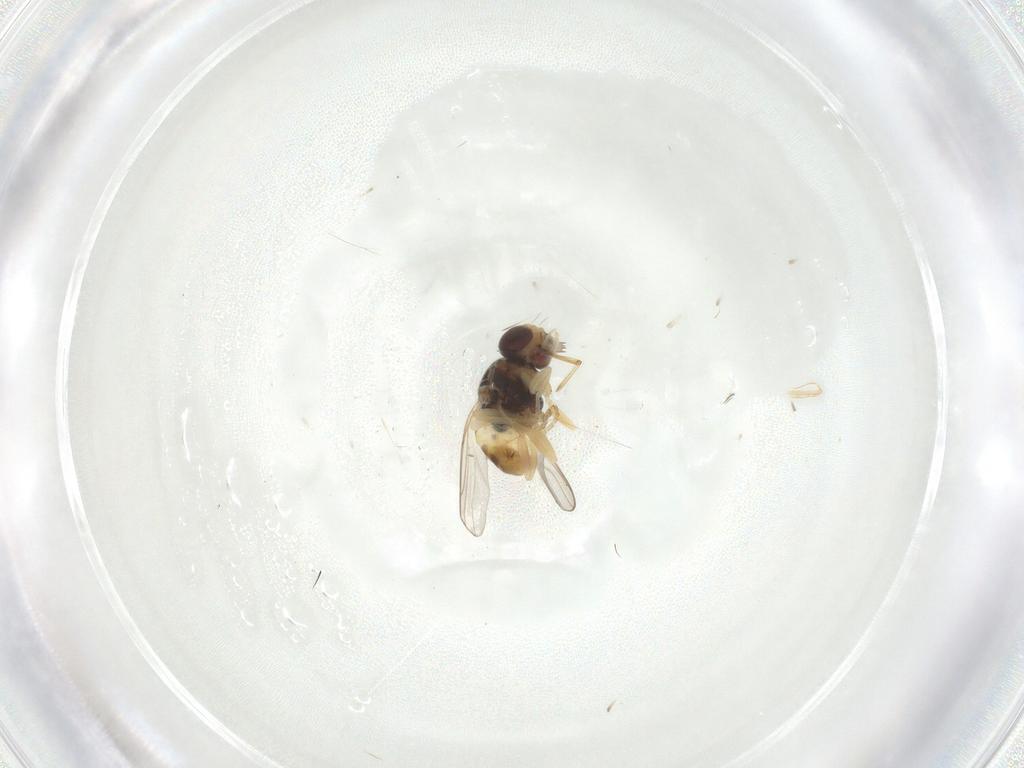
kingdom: Animalia
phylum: Arthropoda
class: Insecta
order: Diptera
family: Chloropidae
